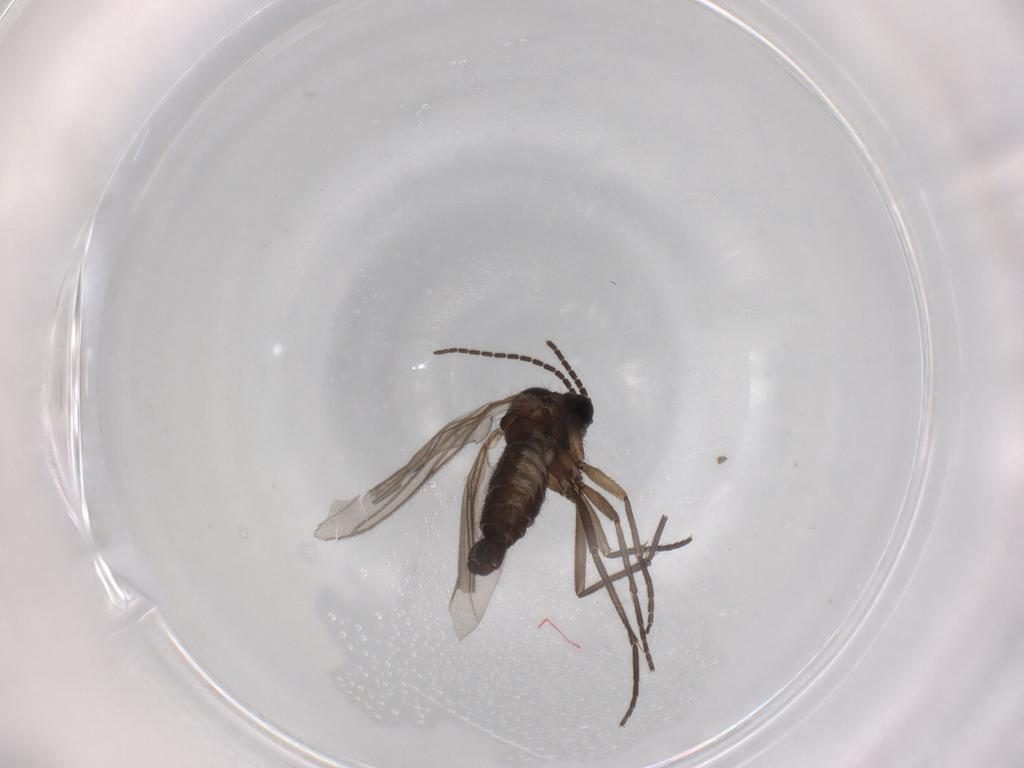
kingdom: Animalia
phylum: Arthropoda
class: Insecta
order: Diptera
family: Sciaridae
